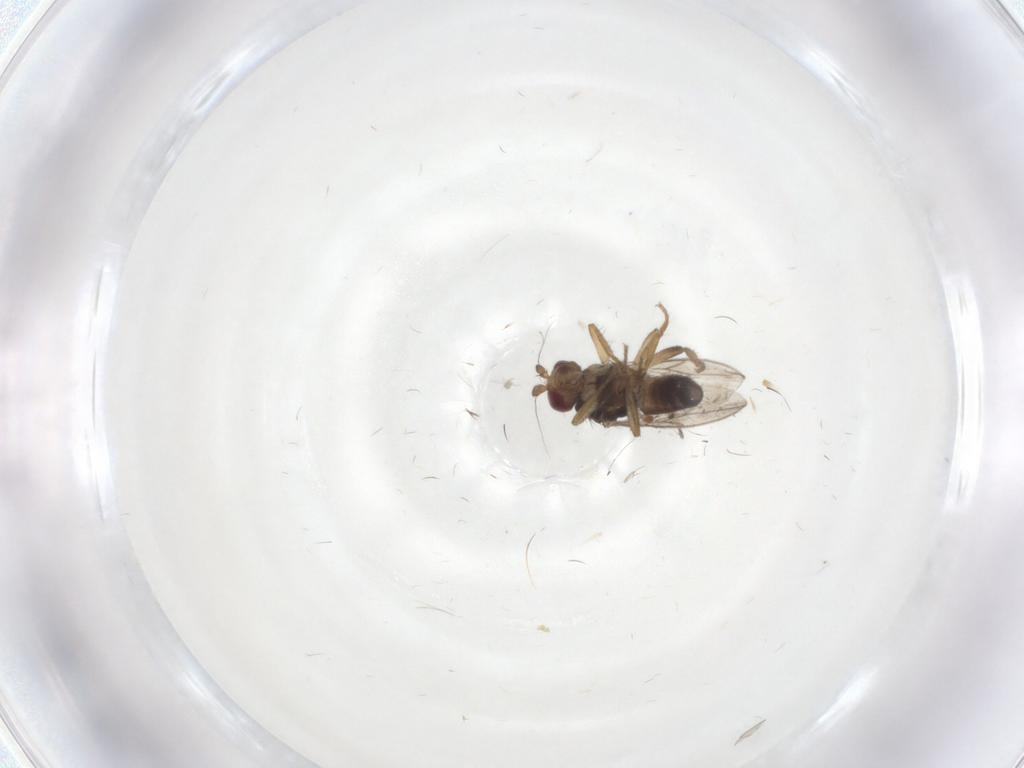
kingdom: Animalia
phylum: Arthropoda
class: Insecta
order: Diptera
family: Sphaeroceridae
